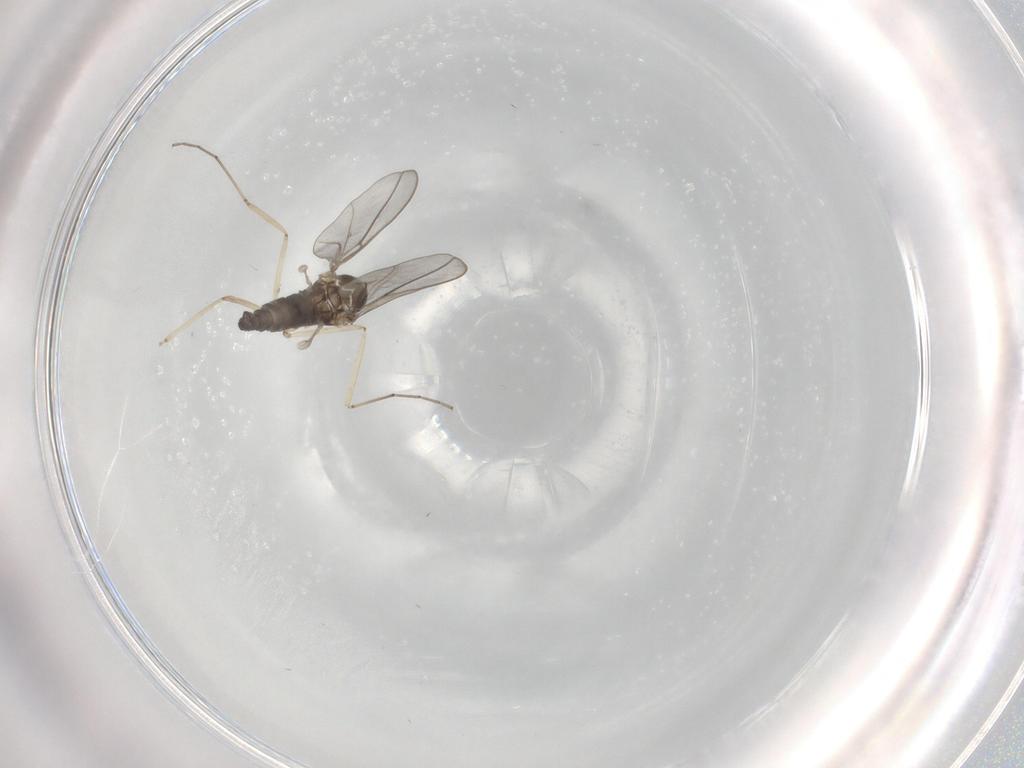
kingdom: Animalia
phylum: Arthropoda
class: Insecta
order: Diptera
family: Cecidomyiidae
